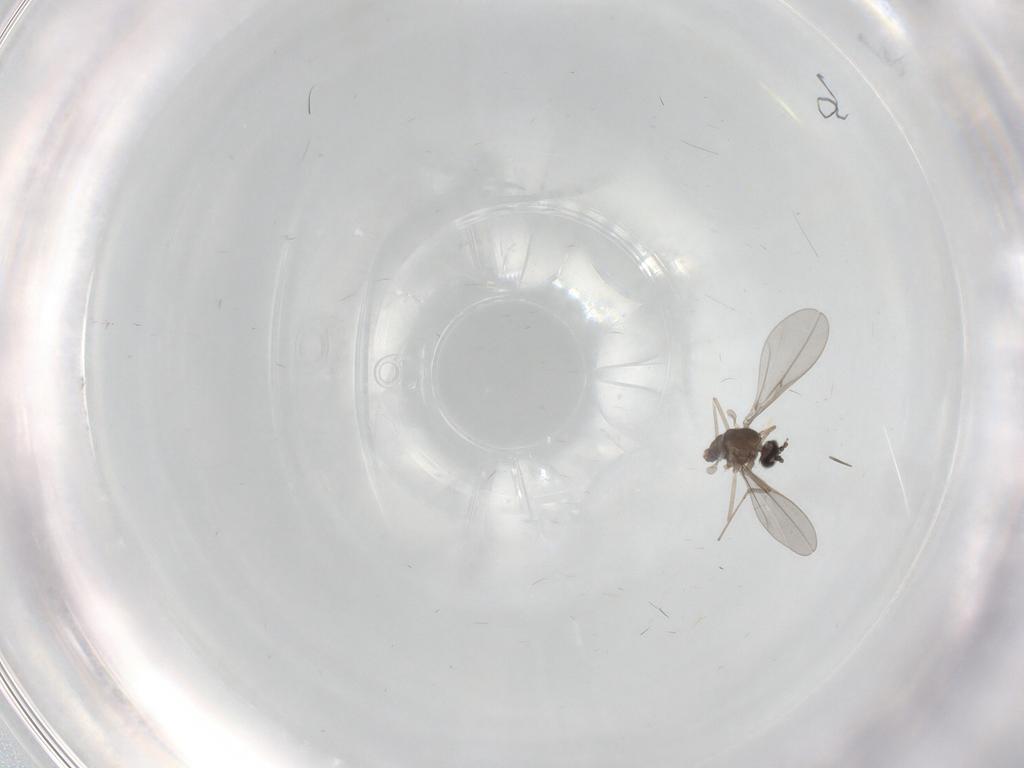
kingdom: Animalia
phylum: Arthropoda
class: Insecta
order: Diptera
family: Cecidomyiidae
